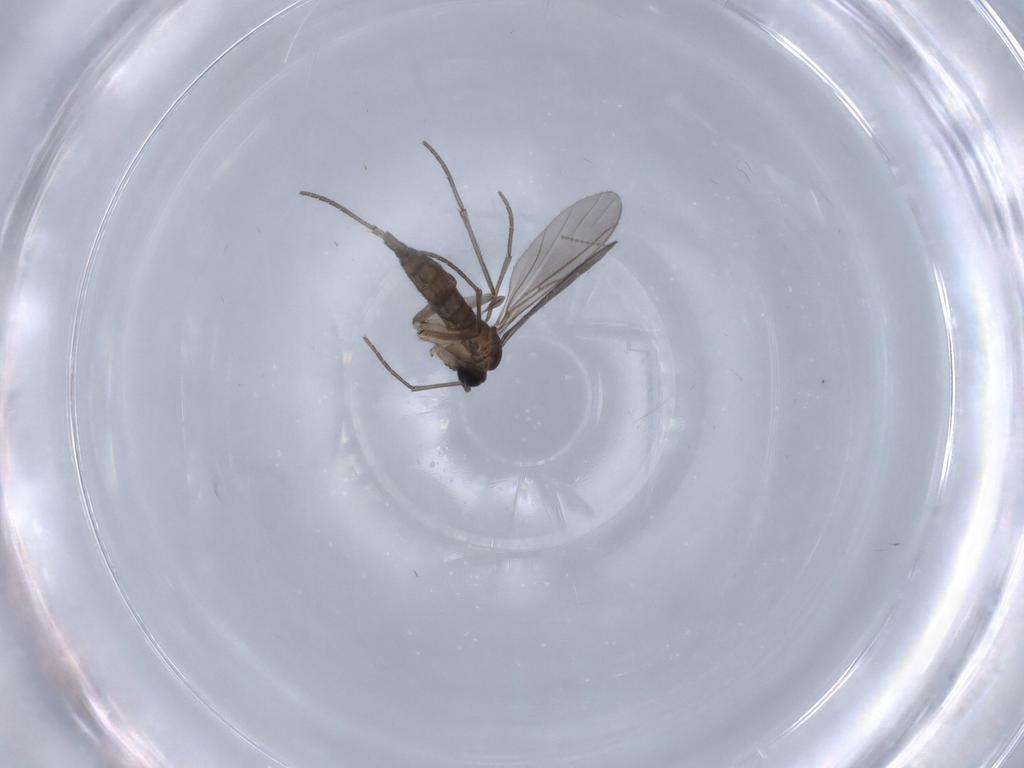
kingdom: Animalia
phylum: Arthropoda
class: Insecta
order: Diptera
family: Sciaridae
